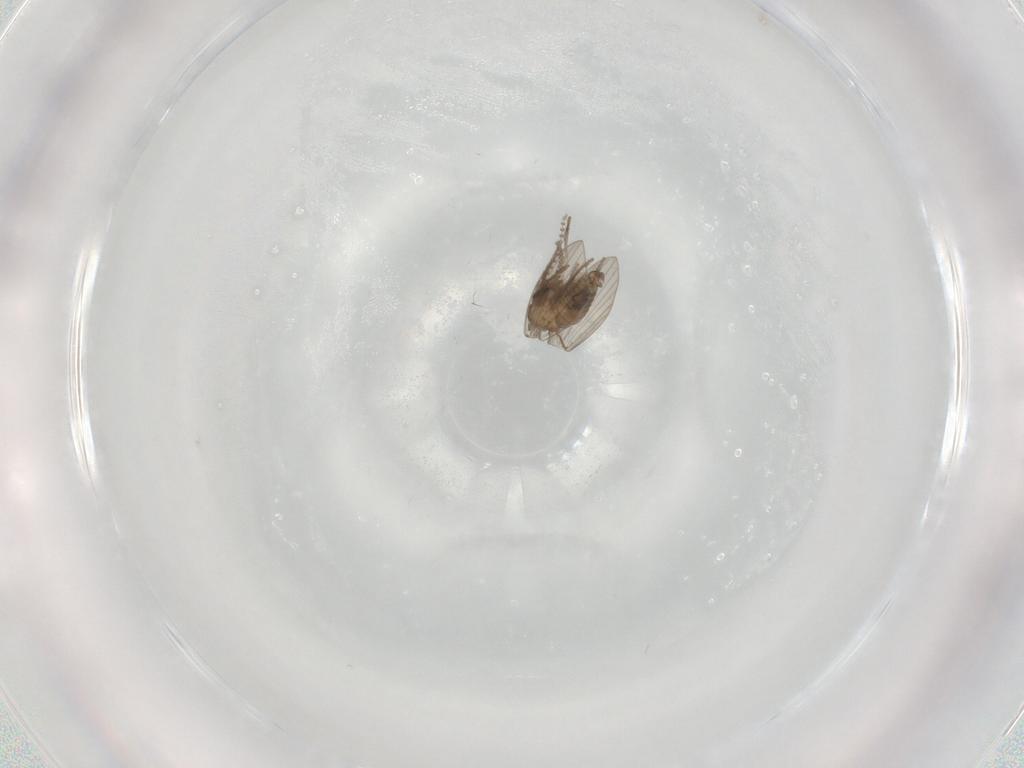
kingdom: Animalia
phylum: Arthropoda
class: Insecta
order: Diptera
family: Psychodidae
